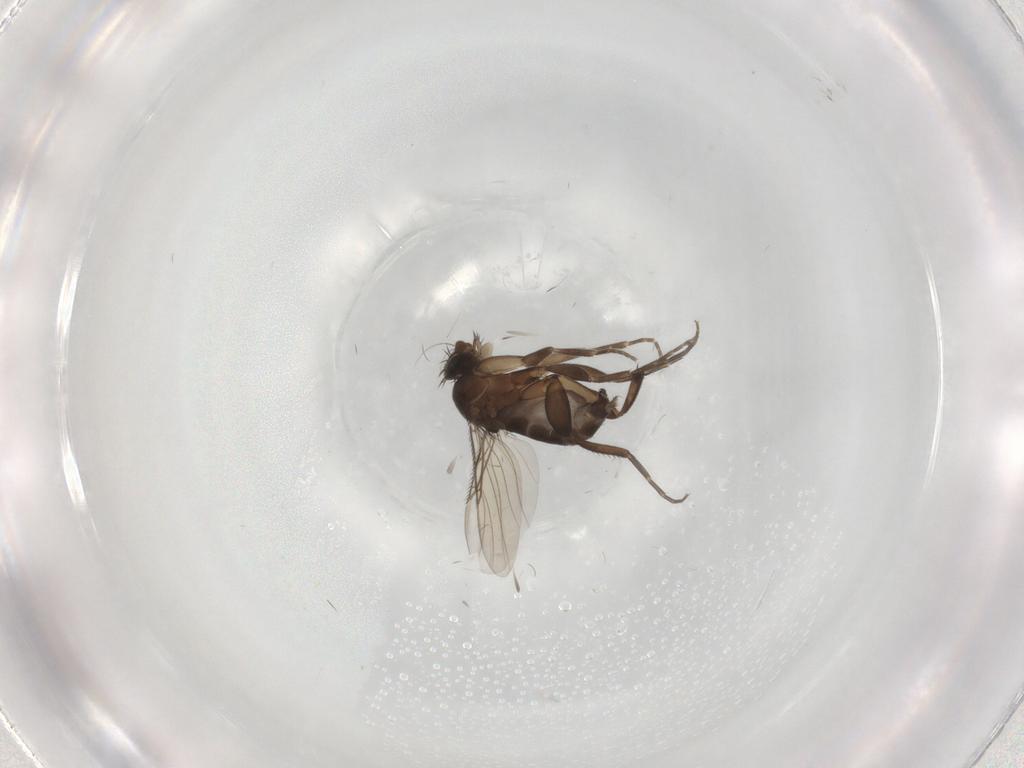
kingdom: Animalia
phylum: Arthropoda
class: Insecta
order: Diptera
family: Phoridae
